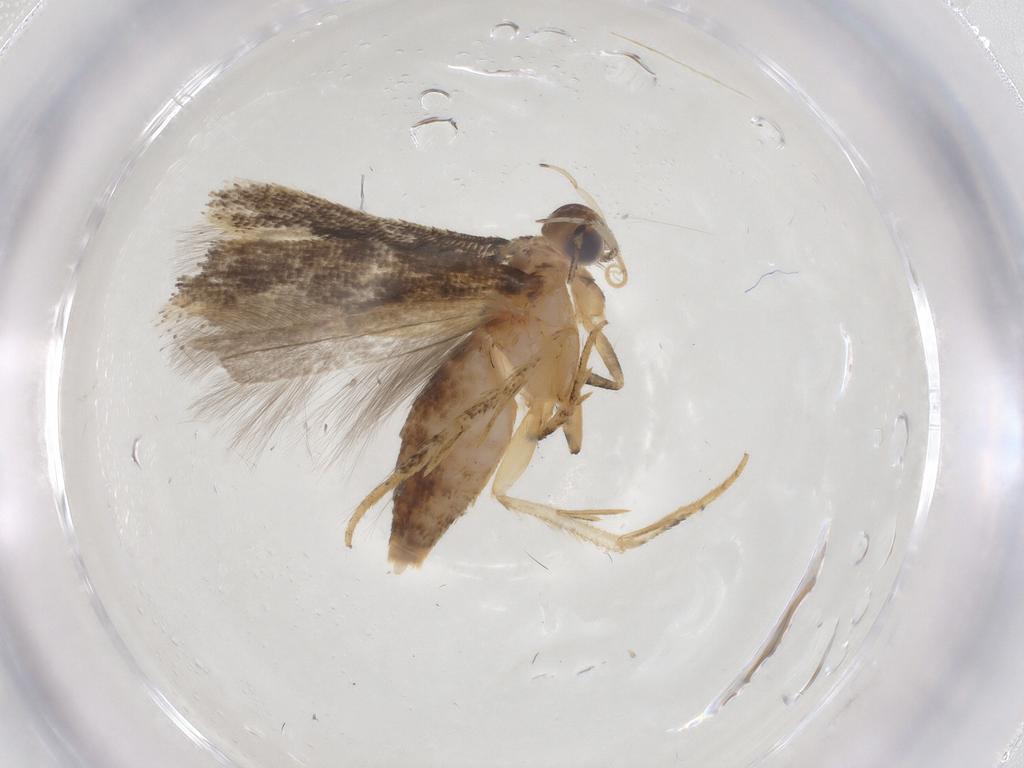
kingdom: Animalia
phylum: Arthropoda
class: Insecta
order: Lepidoptera
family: Gelechiidae
